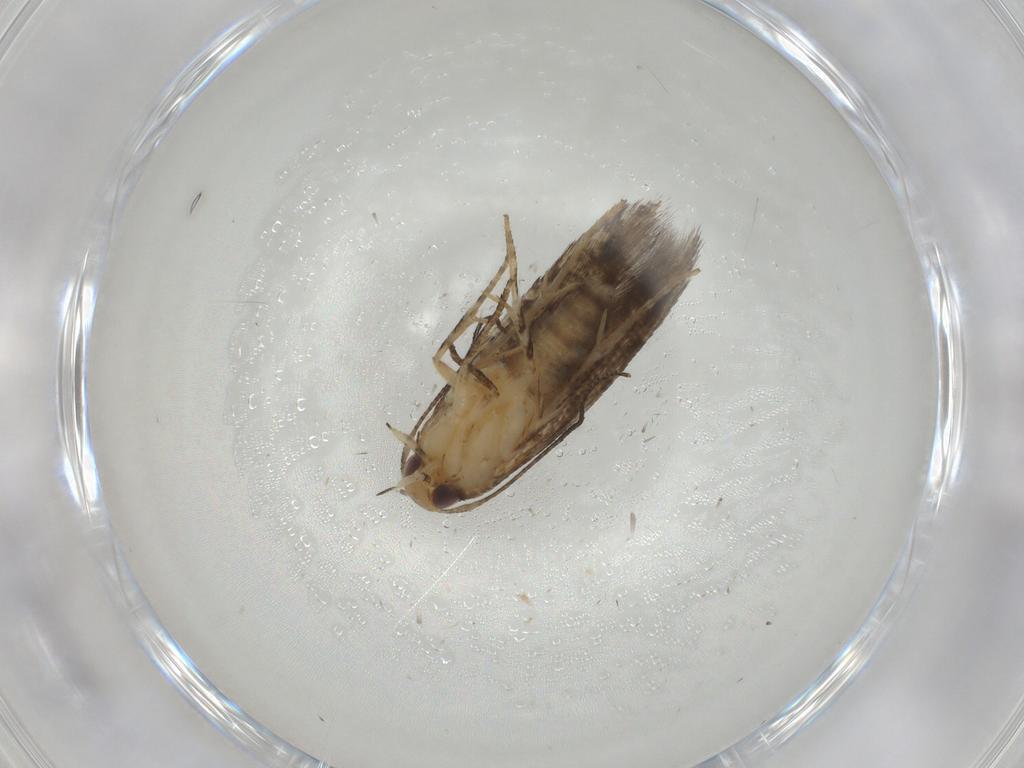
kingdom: Animalia
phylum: Arthropoda
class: Insecta
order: Lepidoptera
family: Elachistidae
